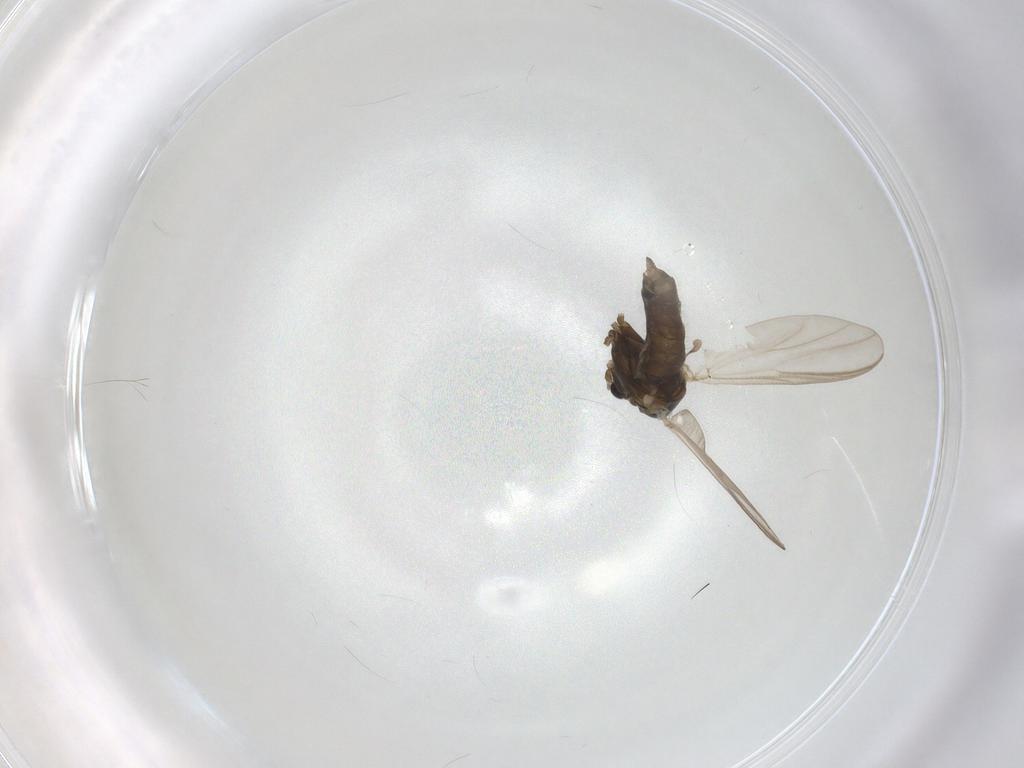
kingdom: Animalia
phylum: Arthropoda
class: Insecta
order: Diptera
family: Chironomidae
